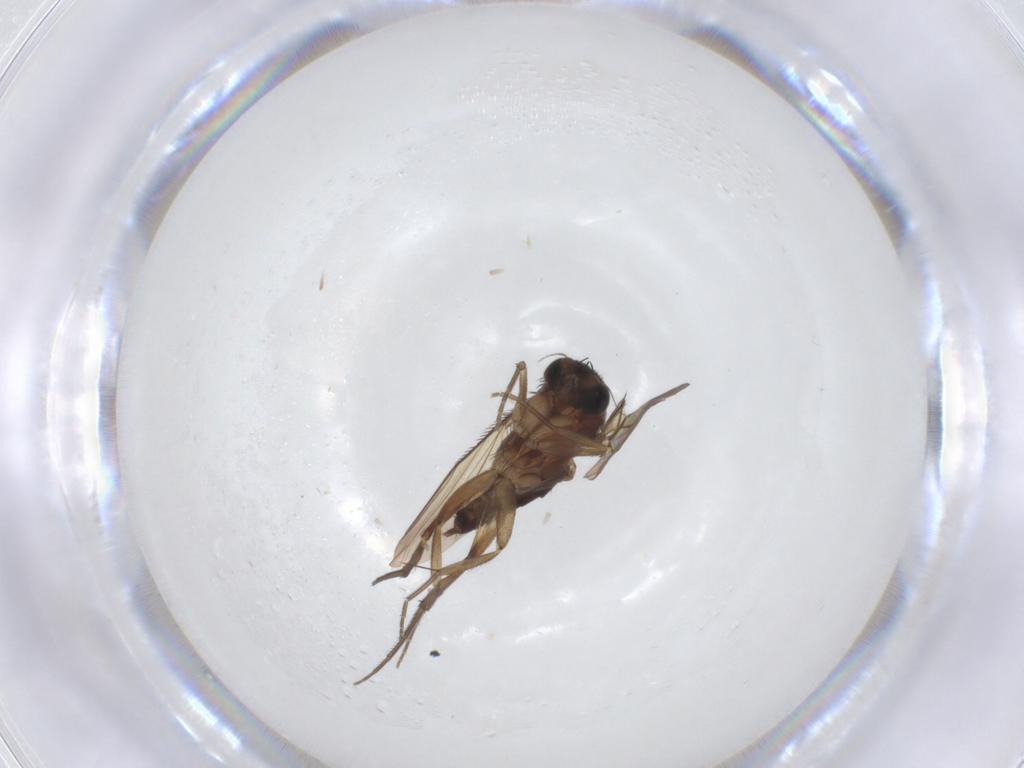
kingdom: Animalia
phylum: Arthropoda
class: Insecta
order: Diptera
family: Phoridae
